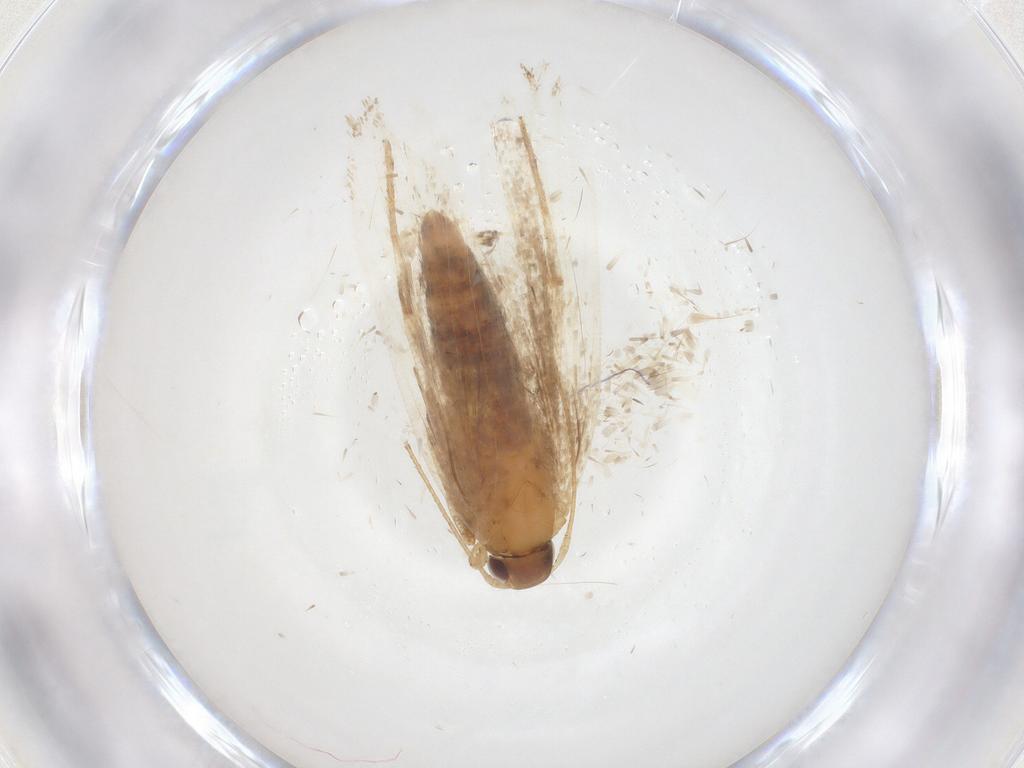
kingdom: Animalia
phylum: Arthropoda
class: Insecta
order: Lepidoptera
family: Gelechiidae
